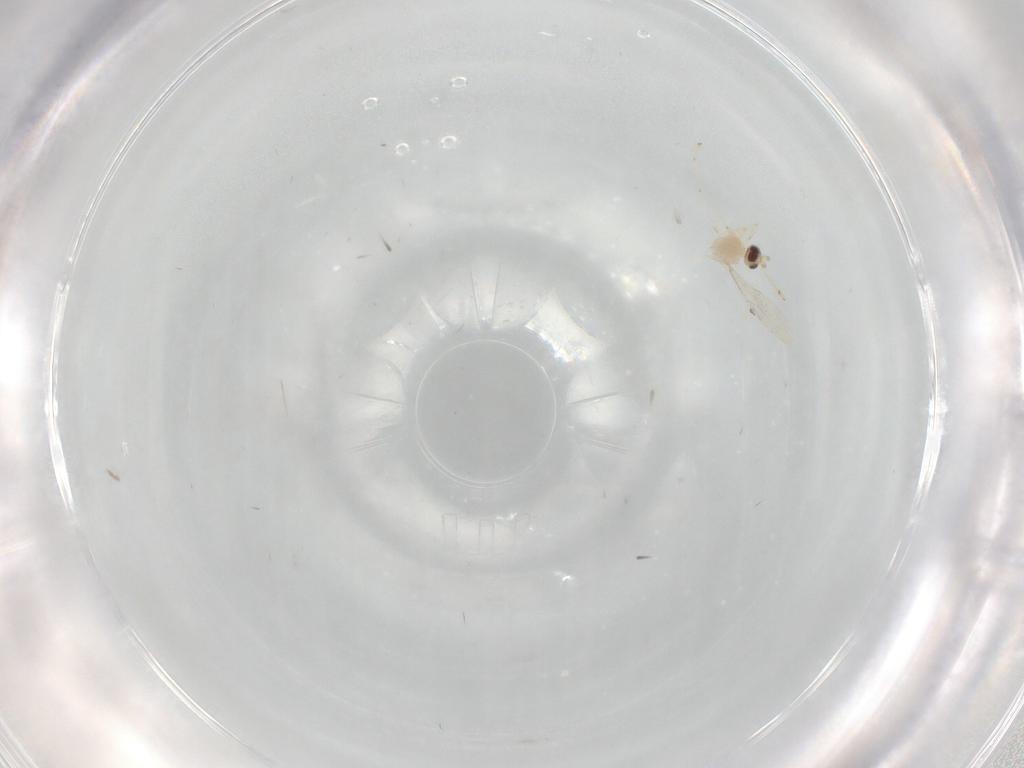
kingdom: Animalia
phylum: Arthropoda
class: Insecta
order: Diptera
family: Cecidomyiidae
